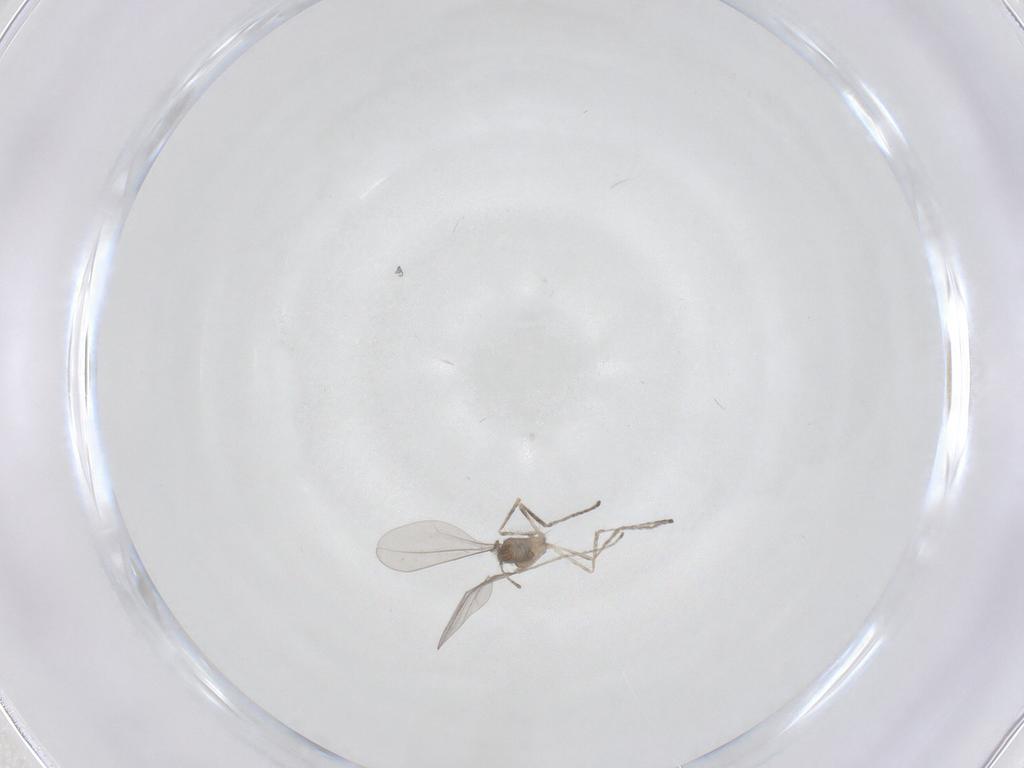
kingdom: Animalia
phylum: Arthropoda
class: Insecta
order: Diptera
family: Cecidomyiidae
